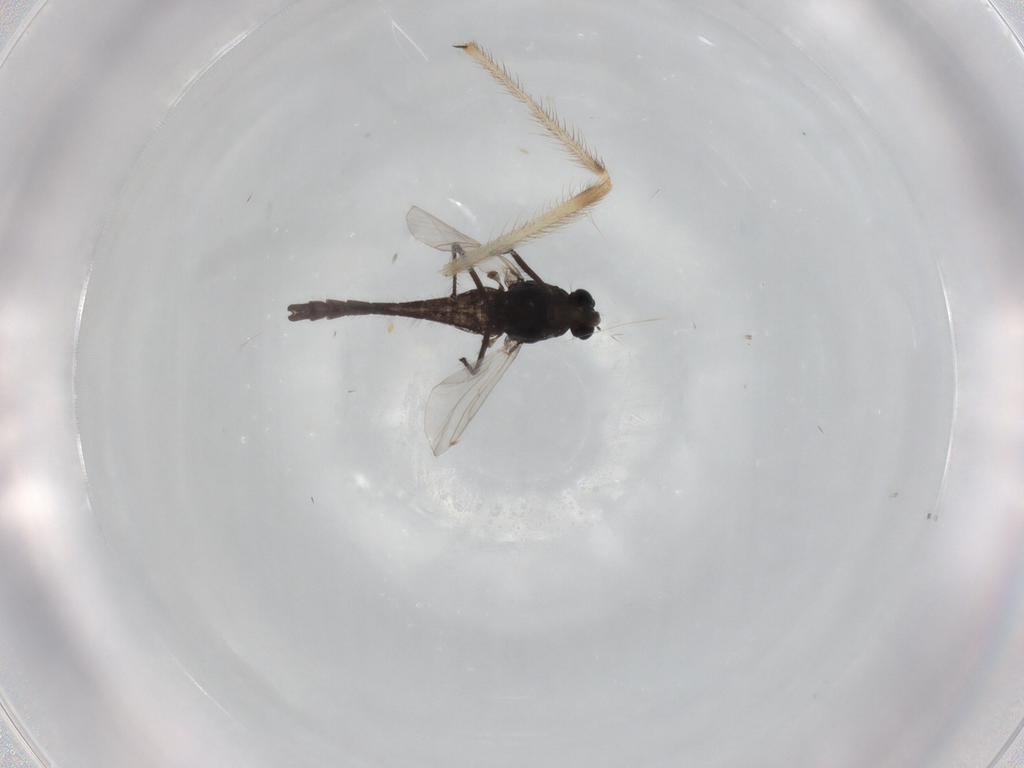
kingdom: Animalia
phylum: Arthropoda
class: Insecta
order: Diptera
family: Chironomidae
